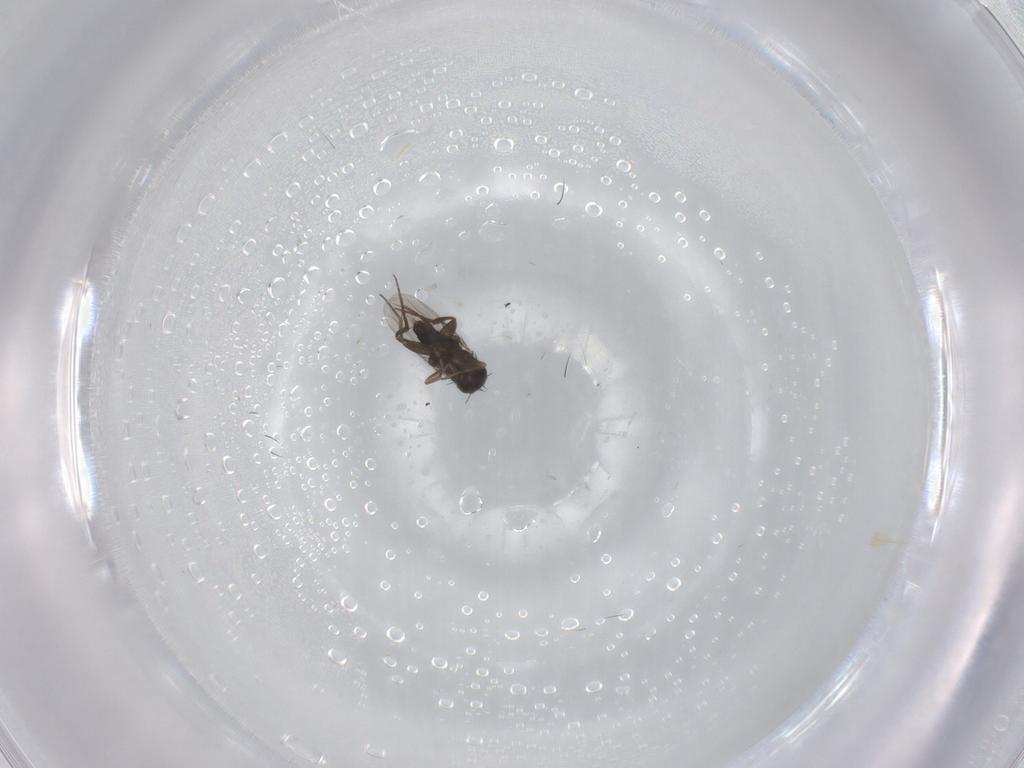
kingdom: Animalia
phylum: Arthropoda
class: Insecta
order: Diptera
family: Phoridae
